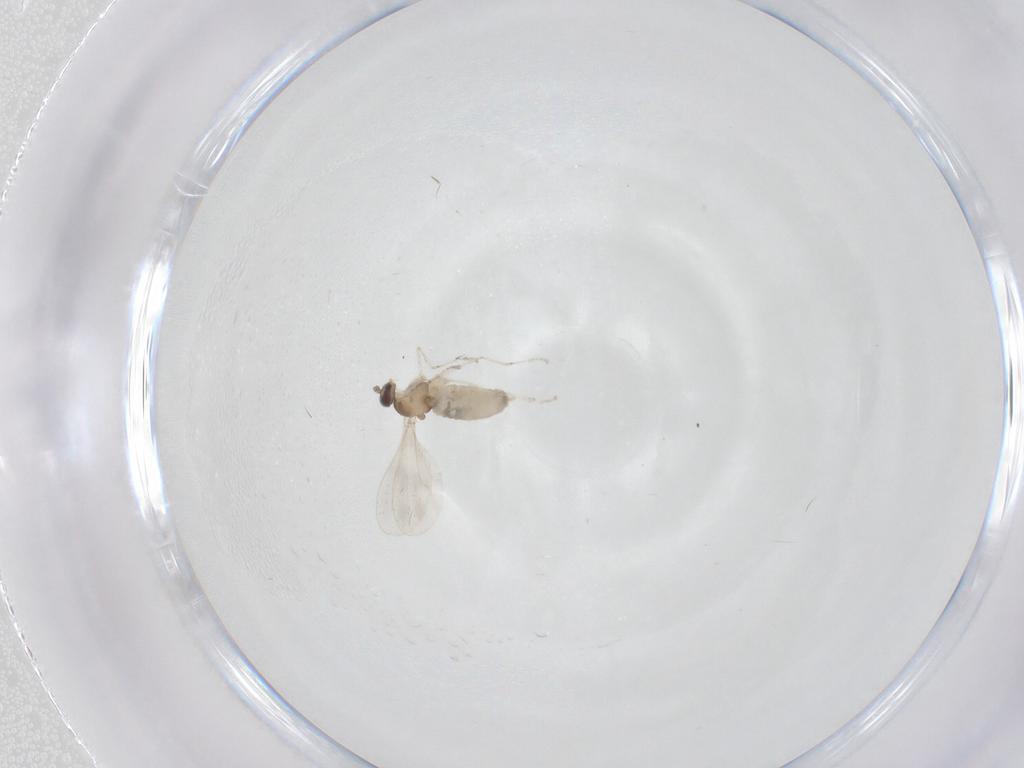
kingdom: Animalia
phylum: Arthropoda
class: Insecta
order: Diptera
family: Cecidomyiidae
